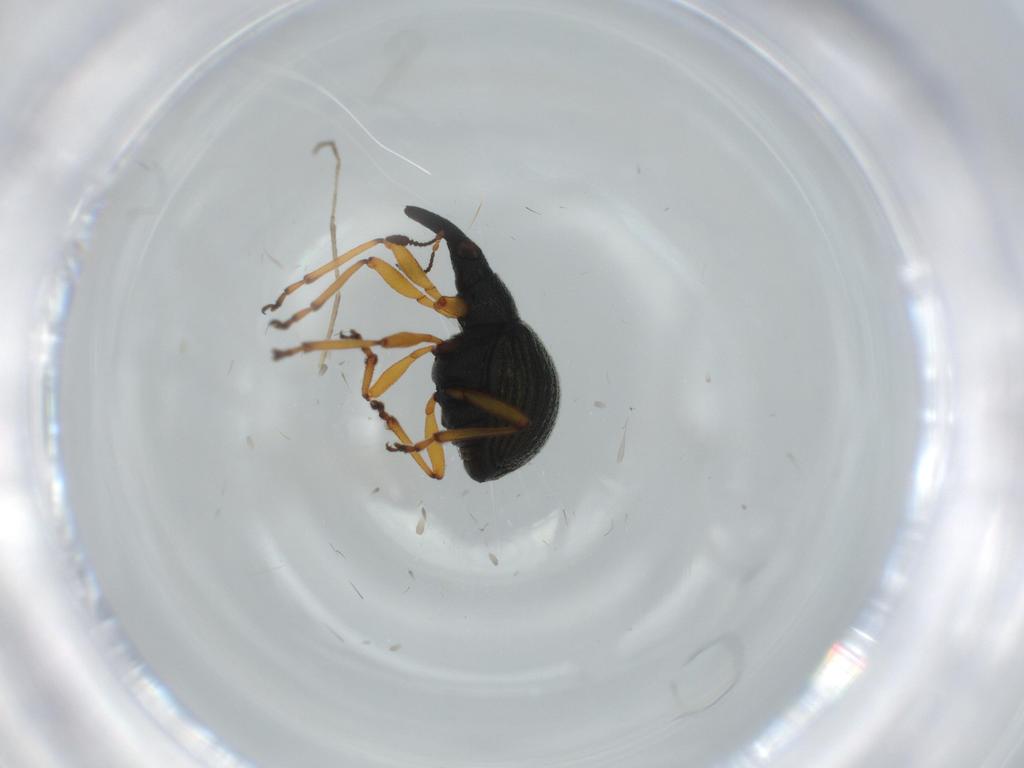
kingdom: Animalia
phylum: Arthropoda
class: Insecta
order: Coleoptera
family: Brentidae
